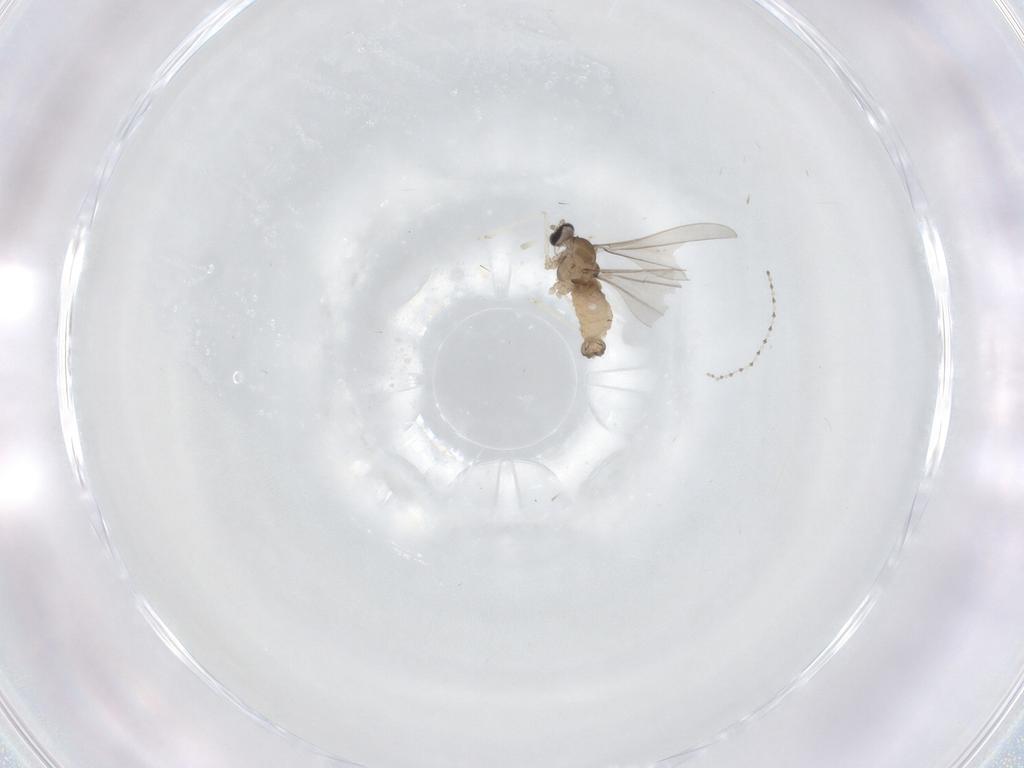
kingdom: Animalia
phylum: Arthropoda
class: Insecta
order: Diptera
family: Cecidomyiidae
